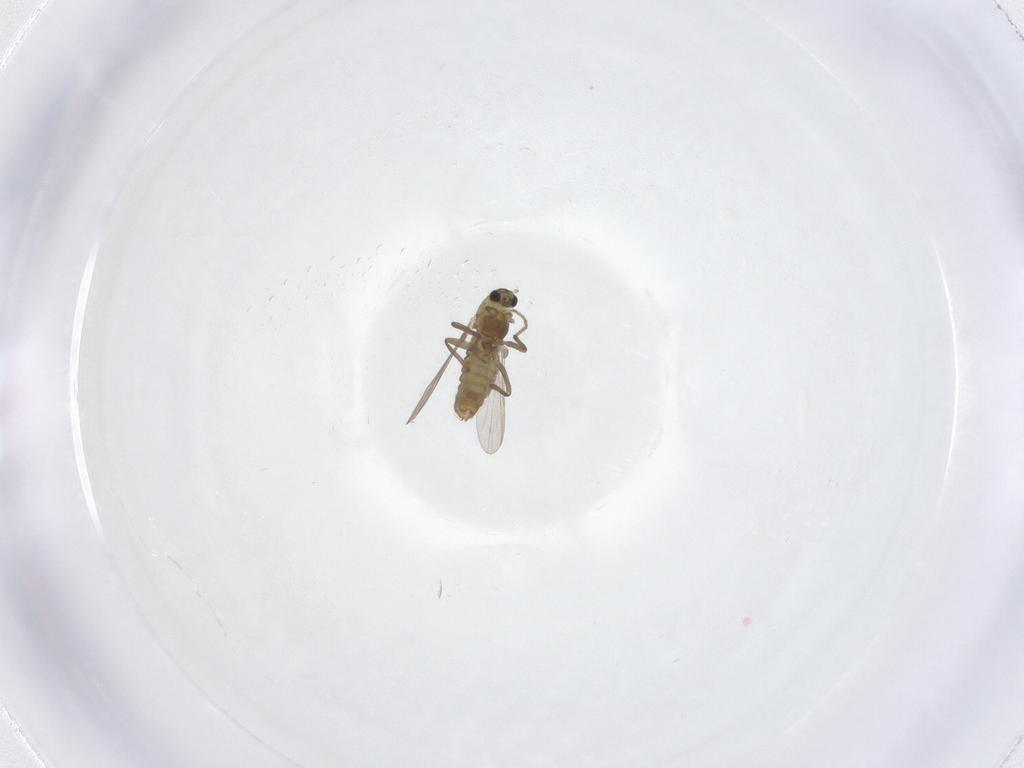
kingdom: Animalia
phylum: Arthropoda
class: Insecta
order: Diptera
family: Chironomidae
